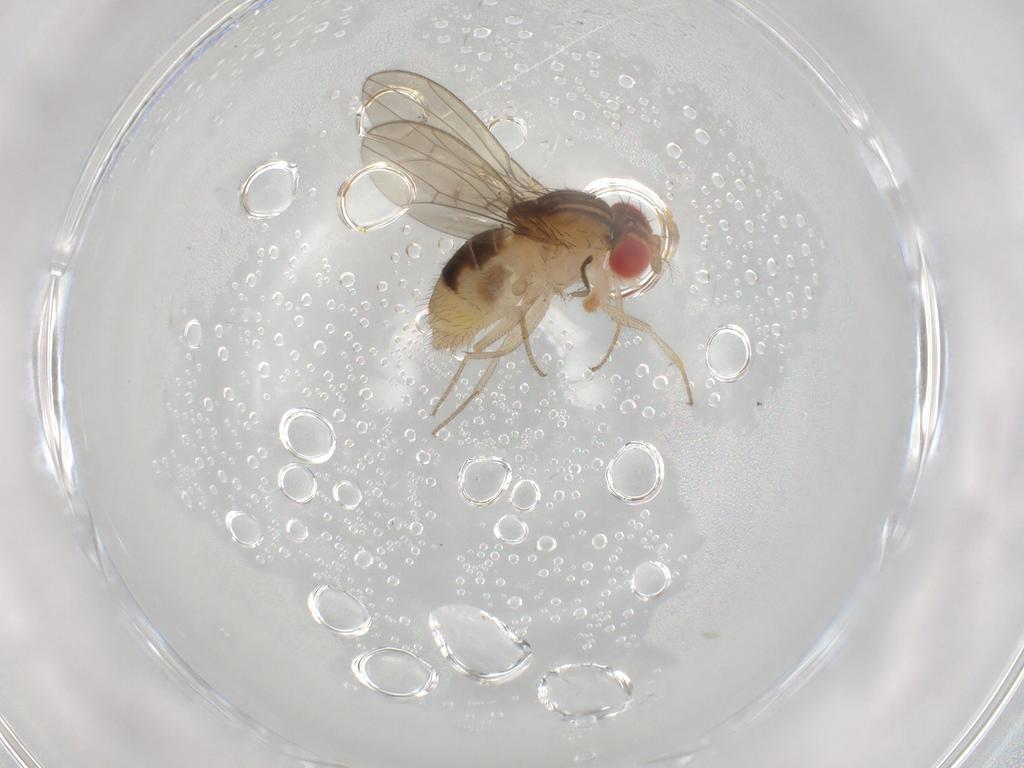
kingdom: Animalia
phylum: Arthropoda
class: Insecta
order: Diptera
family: Drosophilidae
